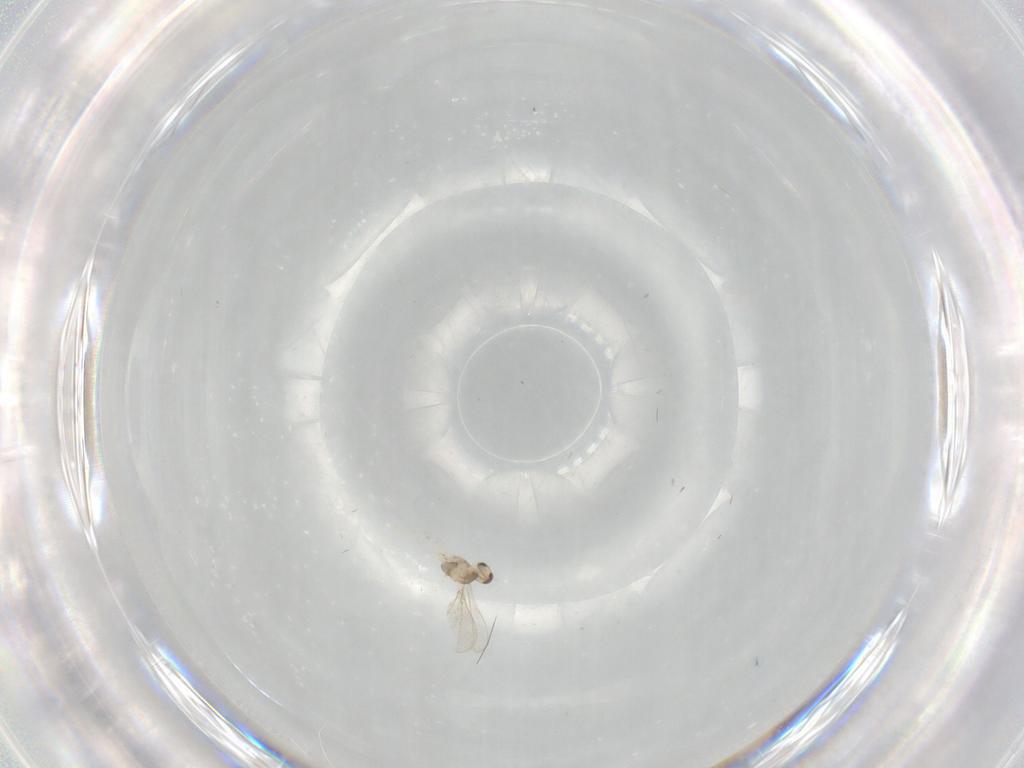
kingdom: Animalia
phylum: Arthropoda
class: Insecta
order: Diptera
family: Cecidomyiidae
